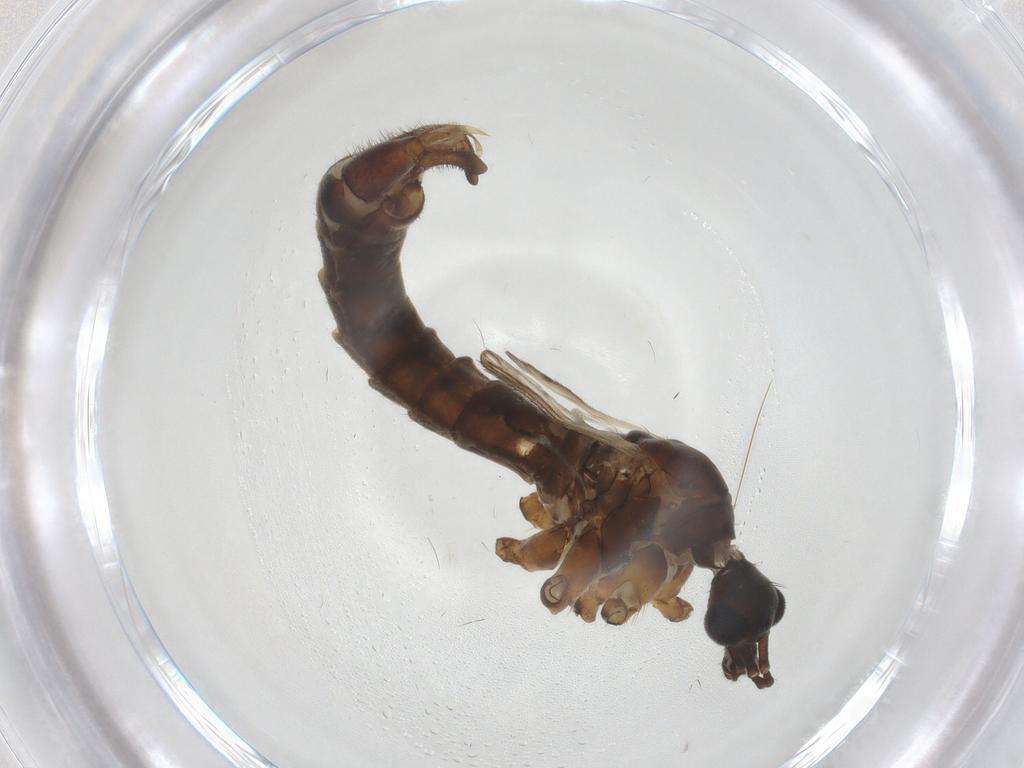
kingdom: Animalia
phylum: Arthropoda
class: Insecta
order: Diptera
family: Chironomidae
